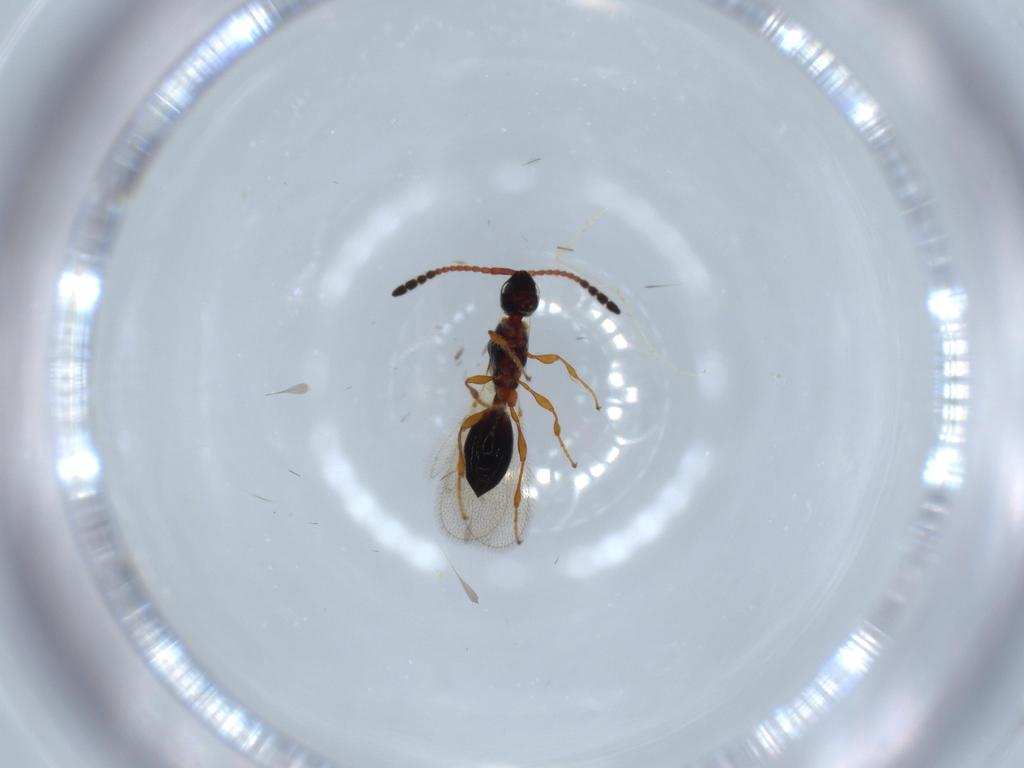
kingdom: Animalia
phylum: Arthropoda
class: Insecta
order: Hymenoptera
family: Diapriidae
